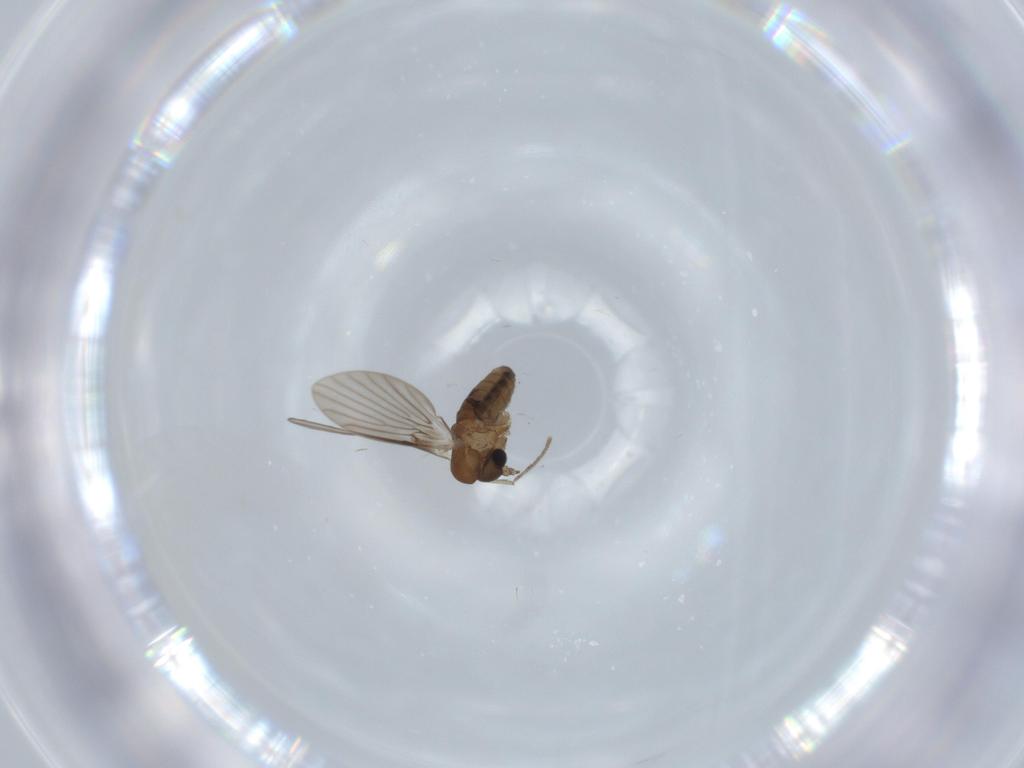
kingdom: Animalia
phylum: Arthropoda
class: Insecta
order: Diptera
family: Psychodidae
